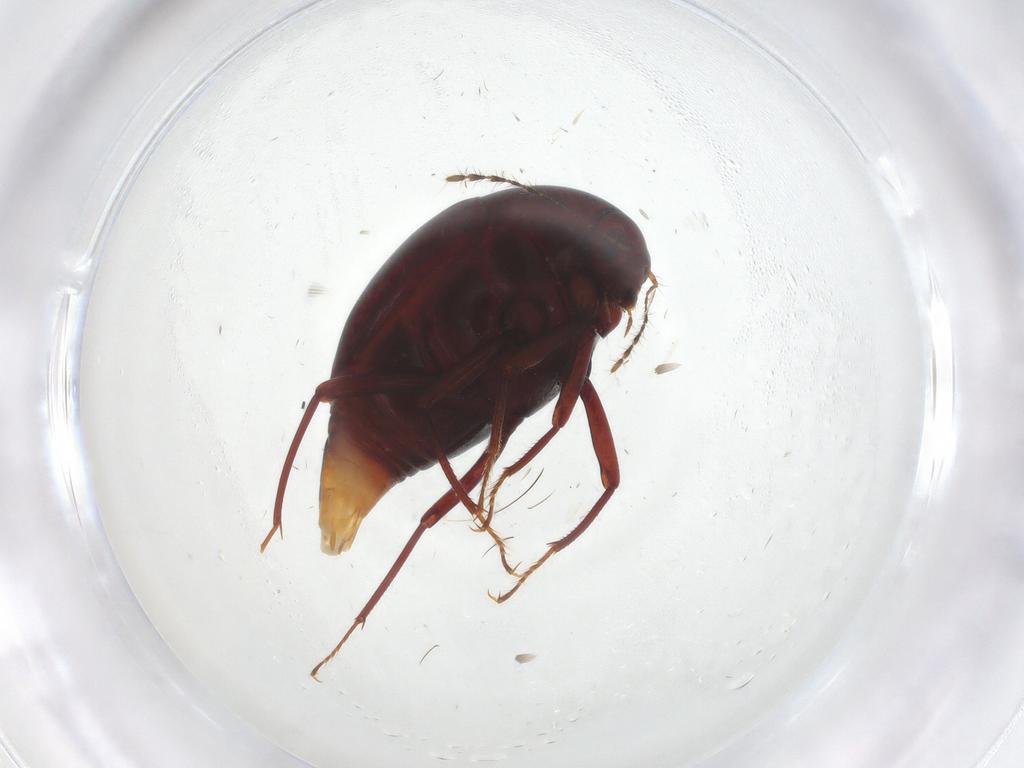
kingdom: Animalia
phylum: Arthropoda
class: Insecta
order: Coleoptera
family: Staphylinidae
